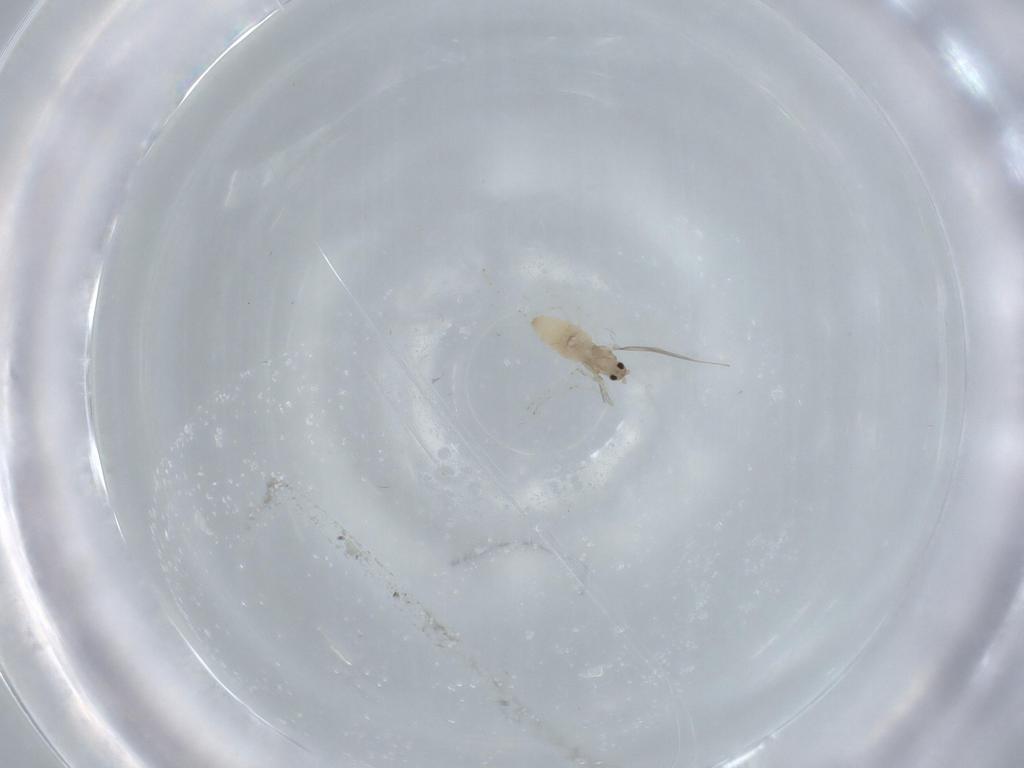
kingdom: Animalia
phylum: Arthropoda
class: Insecta
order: Diptera
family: Cecidomyiidae
